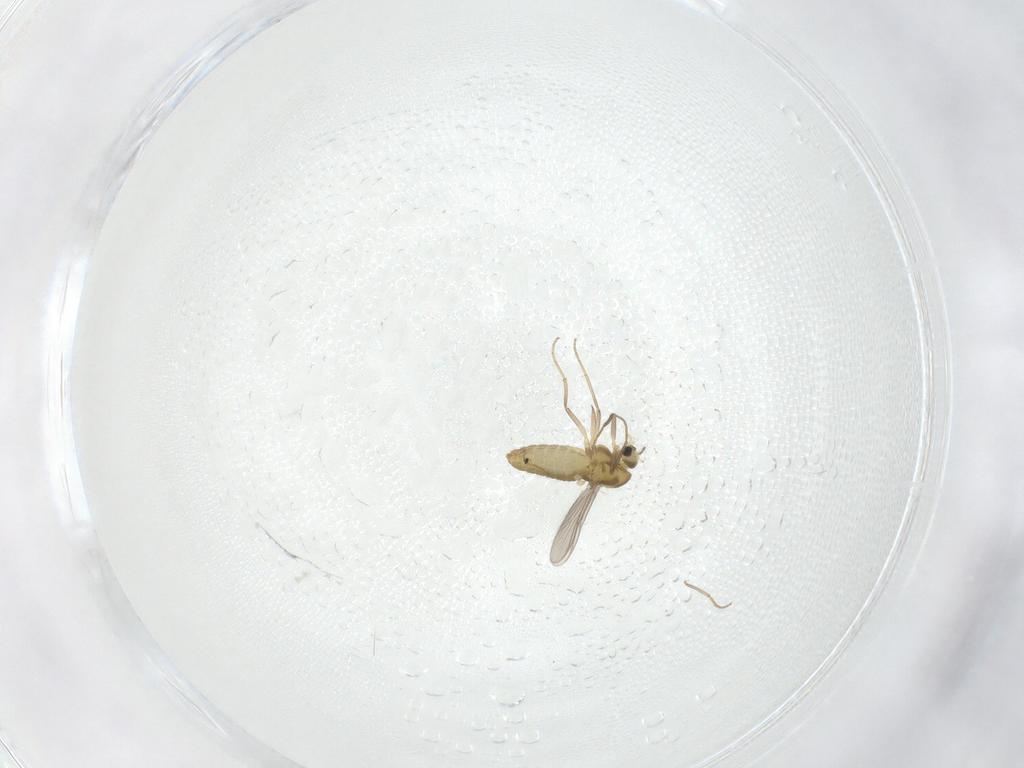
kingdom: Animalia
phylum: Arthropoda
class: Insecta
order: Diptera
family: Chironomidae
